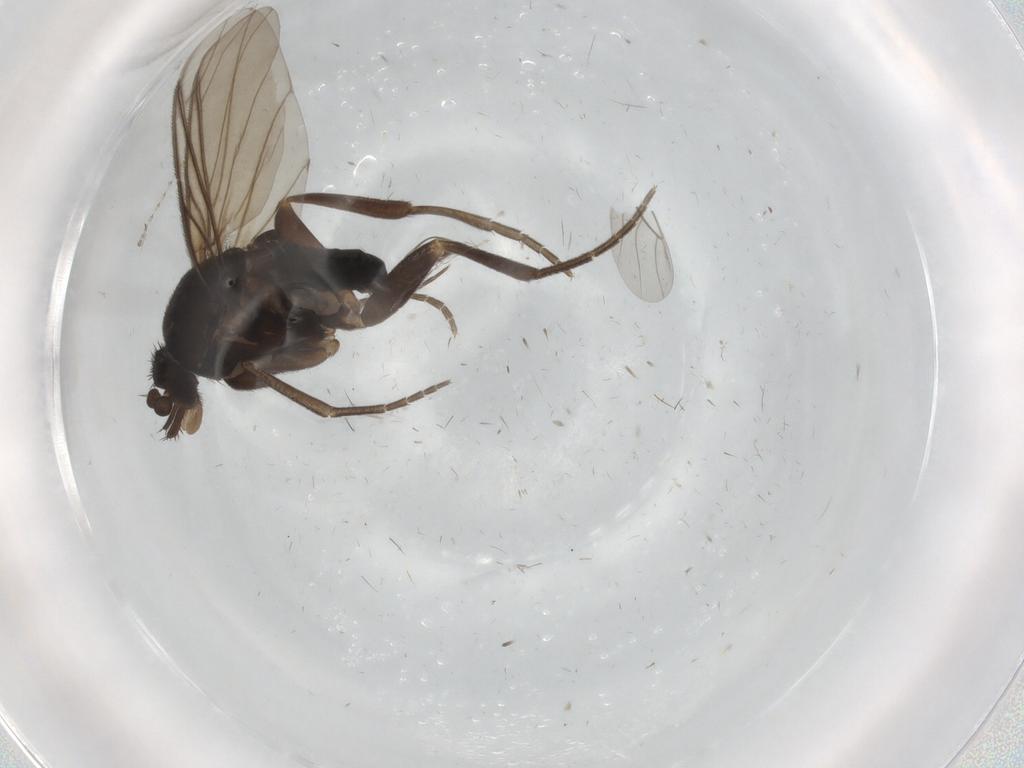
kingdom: Animalia
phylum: Arthropoda
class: Insecta
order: Diptera
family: Phoridae
